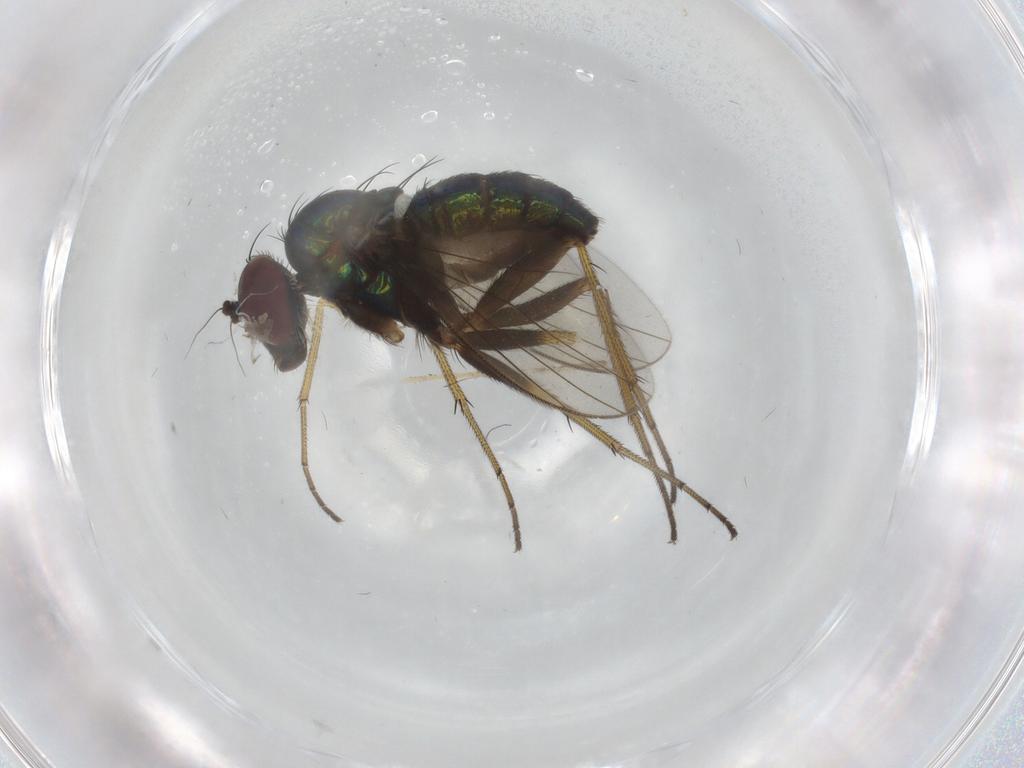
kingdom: Animalia
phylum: Arthropoda
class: Insecta
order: Diptera
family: Dolichopodidae
